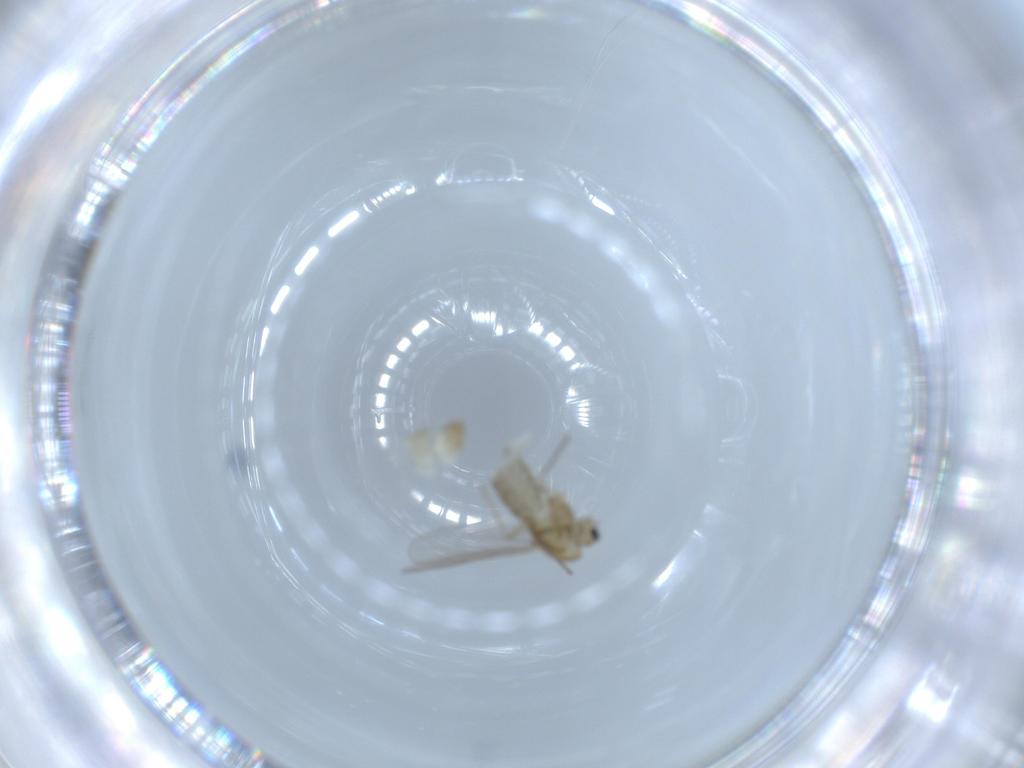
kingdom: Animalia
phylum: Arthropoda
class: Insecta
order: Diptera
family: Chironomidae
